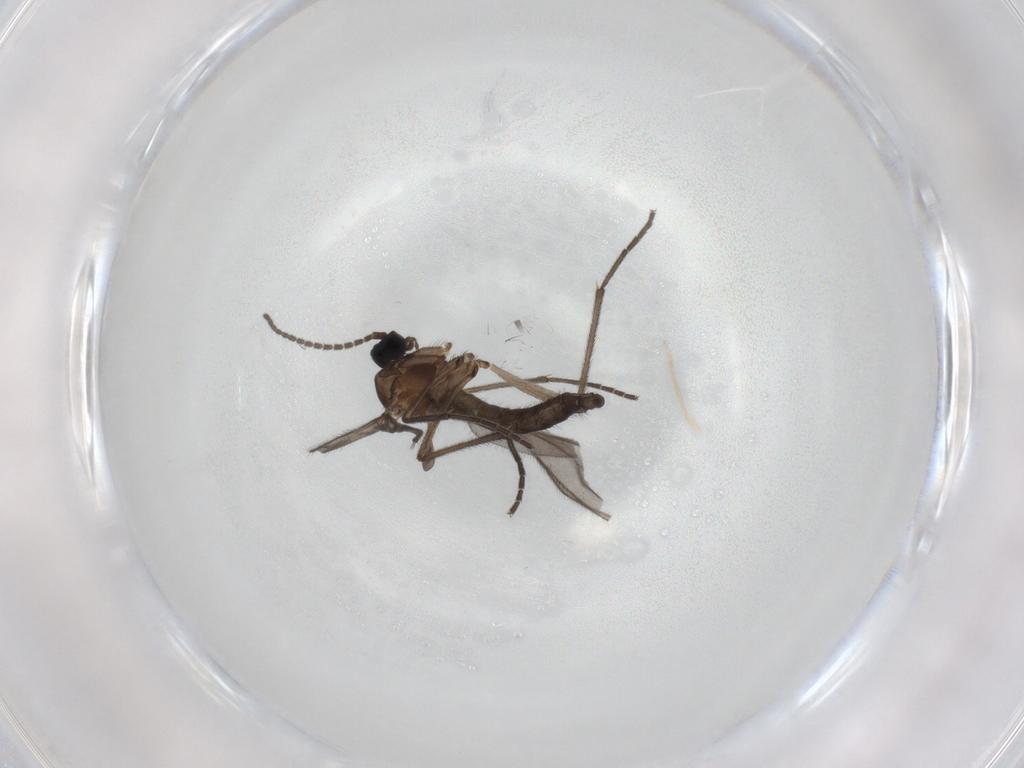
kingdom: Animalia
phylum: Arthropoda
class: Insecta
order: Diptera
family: Sciaridae
